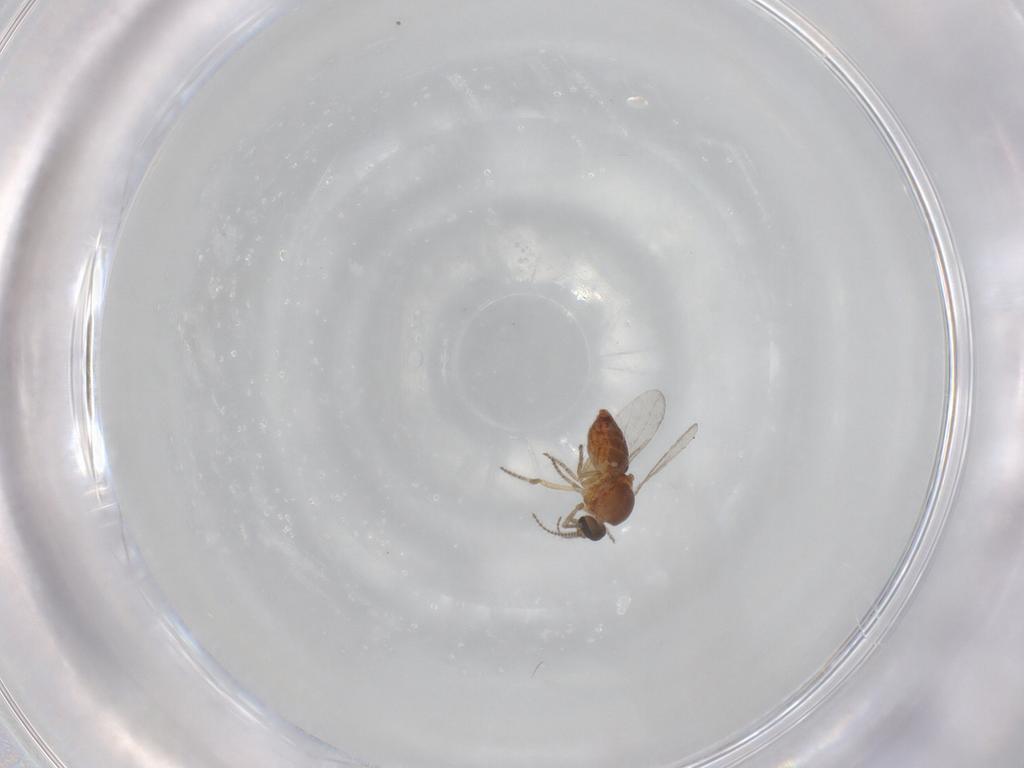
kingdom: Animalia
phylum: Arthropoda
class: Insecta
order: Diptera
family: Ceratopogonidae
